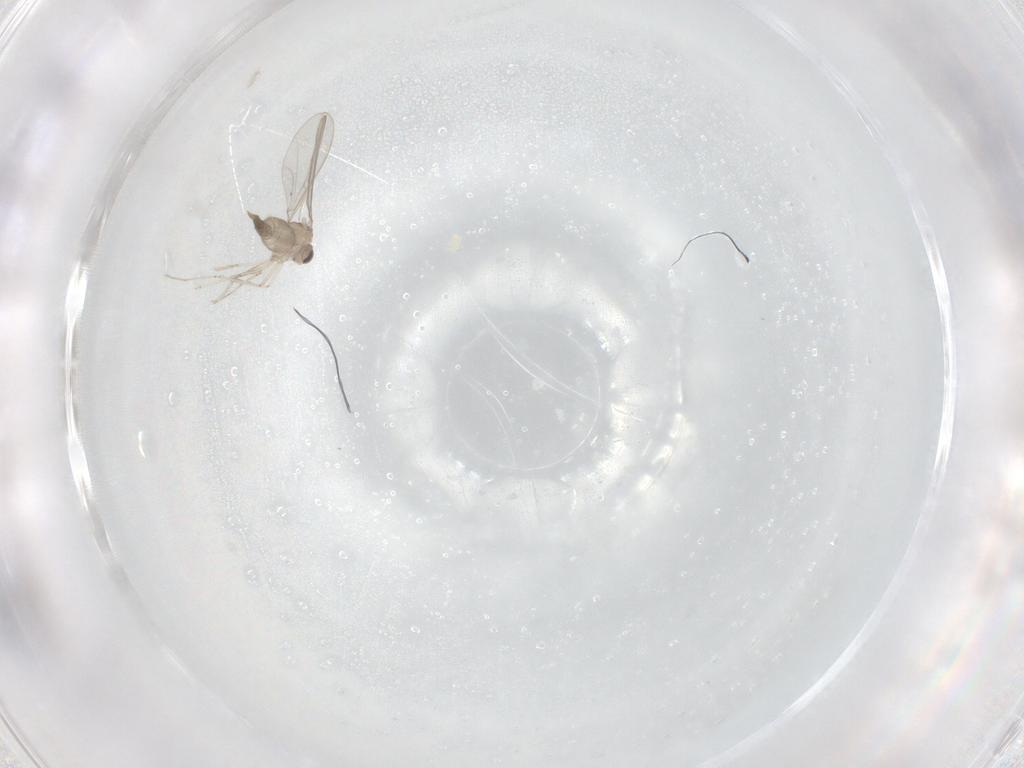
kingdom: Animalia
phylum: Arthropoda
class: Insecta
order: Diptera
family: Cecidomyiidae
